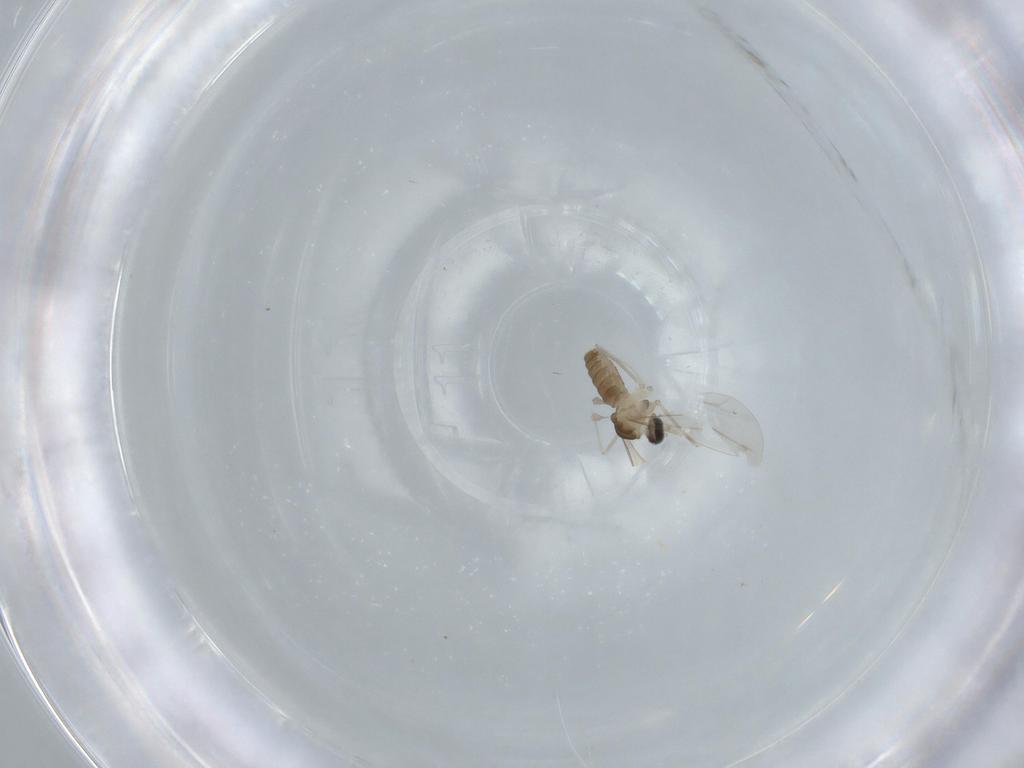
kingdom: Animalia
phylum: Arthropoda
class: Insecta
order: Diptera
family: Cecidomyiidae
